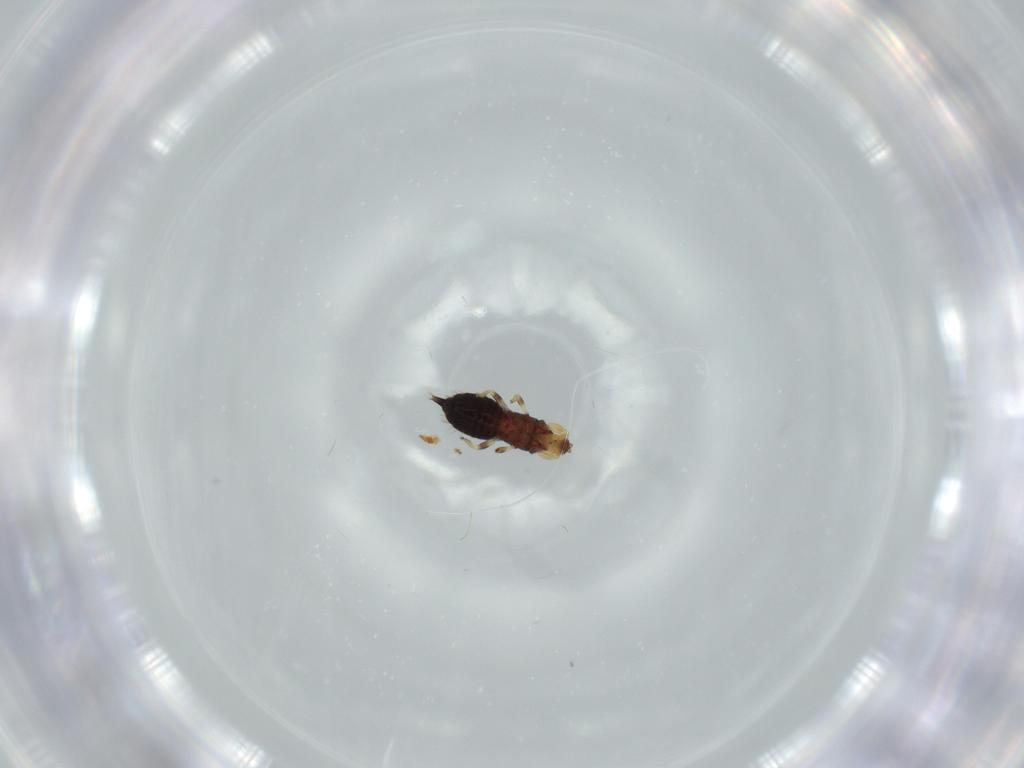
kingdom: Animalia
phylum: Arthropoda
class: Insecta
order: Thysanoptera
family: Phlaeothripidae
